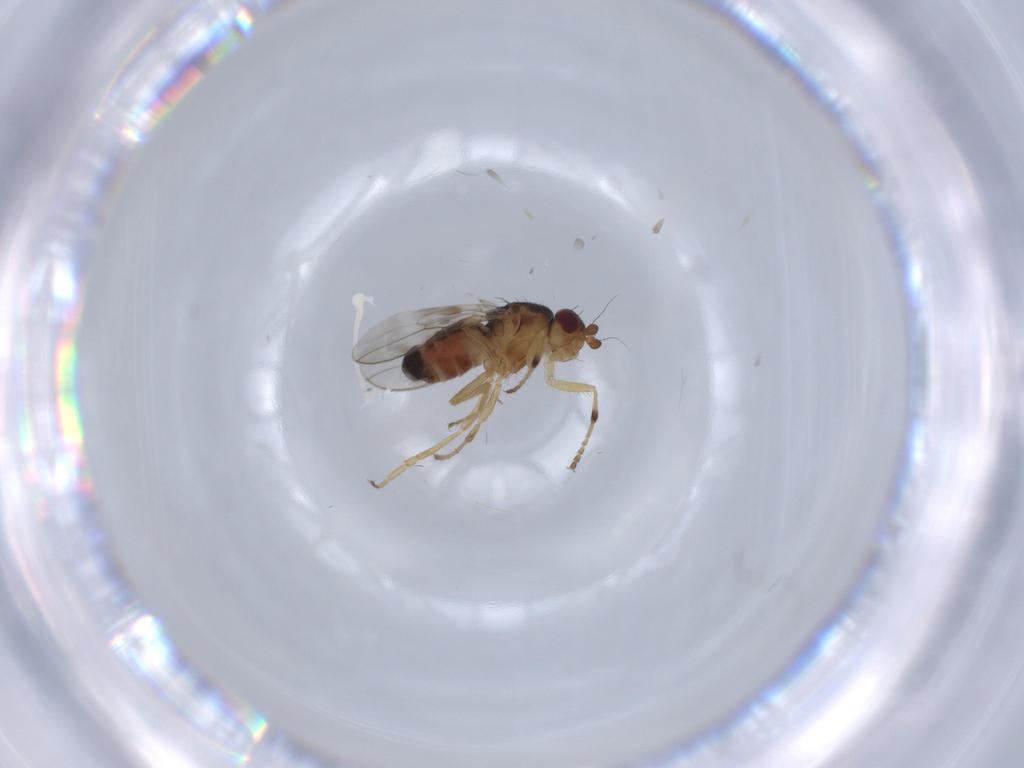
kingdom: Animalia
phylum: Arthropoda
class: Insecta
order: Diptera
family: Sphaeroceridae
